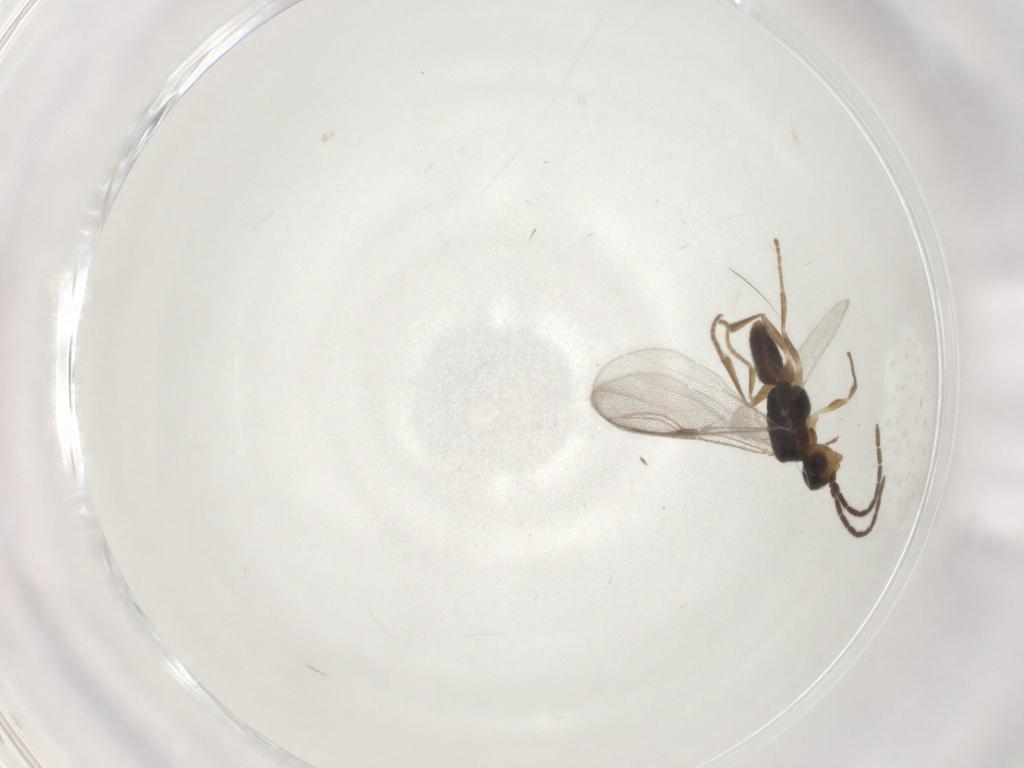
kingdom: Animalia
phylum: Arthropoda
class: Insecta
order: Hymenoptera
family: Dryinidae
